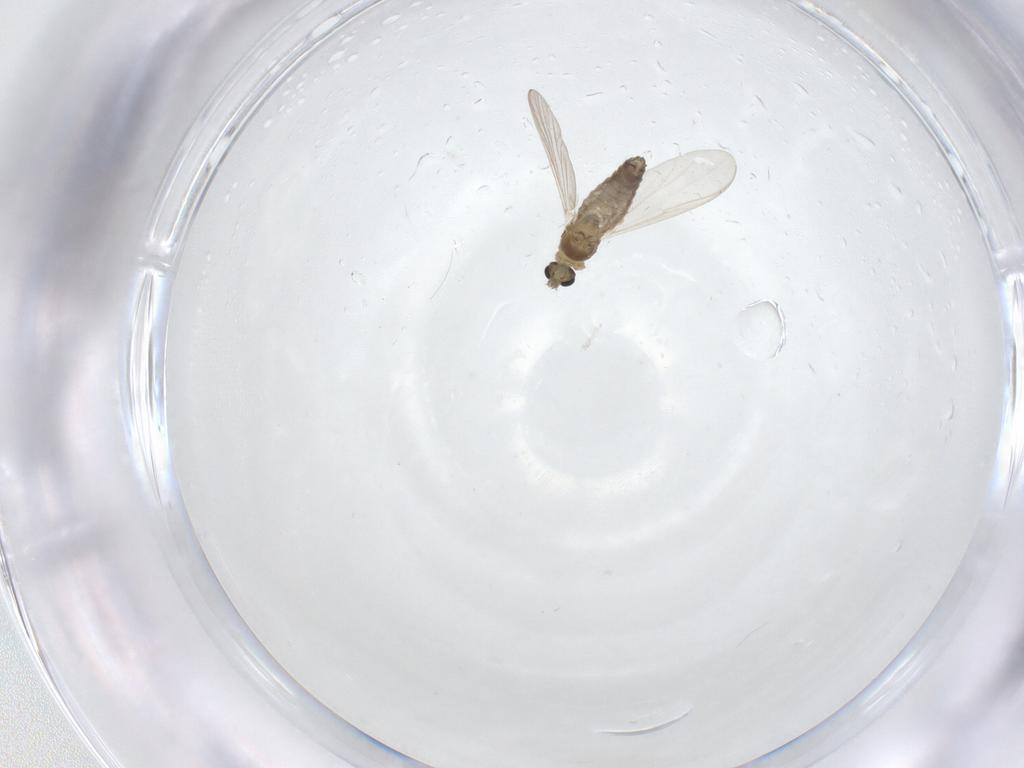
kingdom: Animalia
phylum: Arthropoda
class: Insecta
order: Diptera
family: Chironomidae
